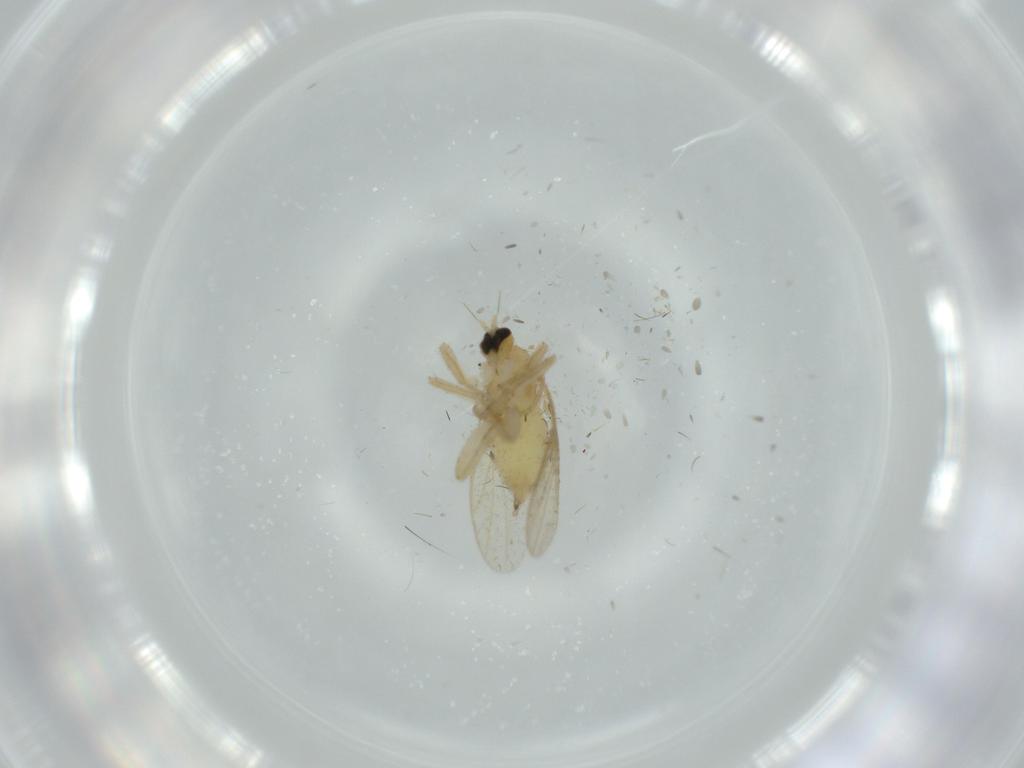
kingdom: Animalia
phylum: Arthropoda
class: Insecta
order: Diptera
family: Hybotidae
